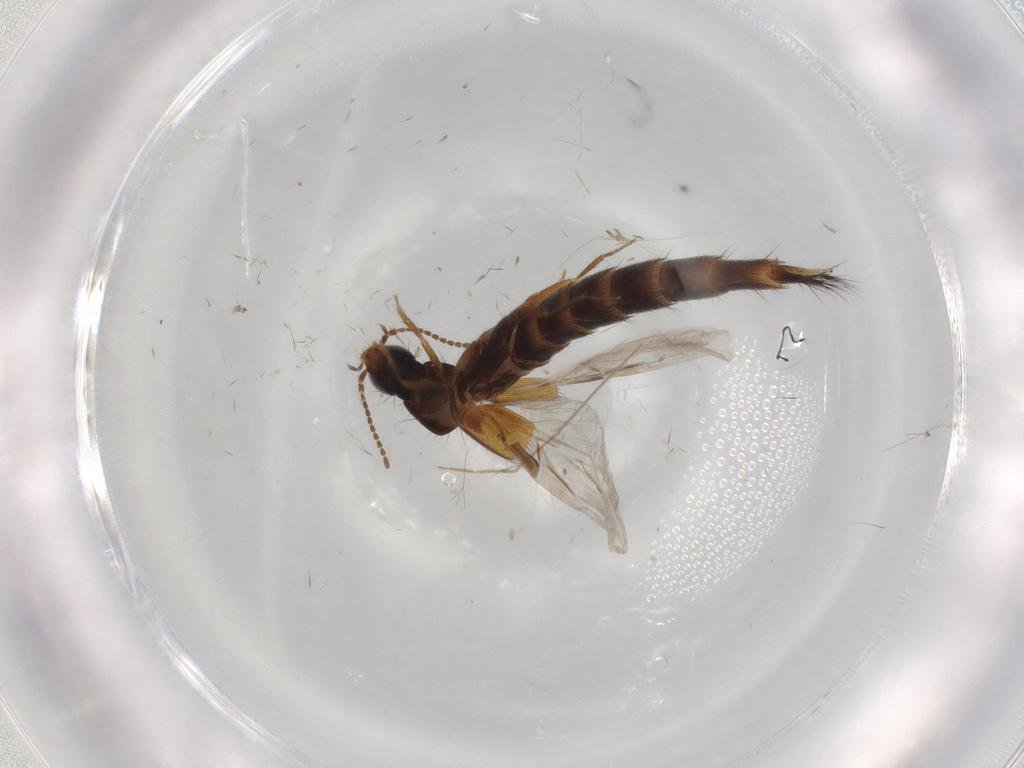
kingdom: Animalia
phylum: Arthropoda
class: Insecta
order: Coleoptera
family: Staphylinidae
